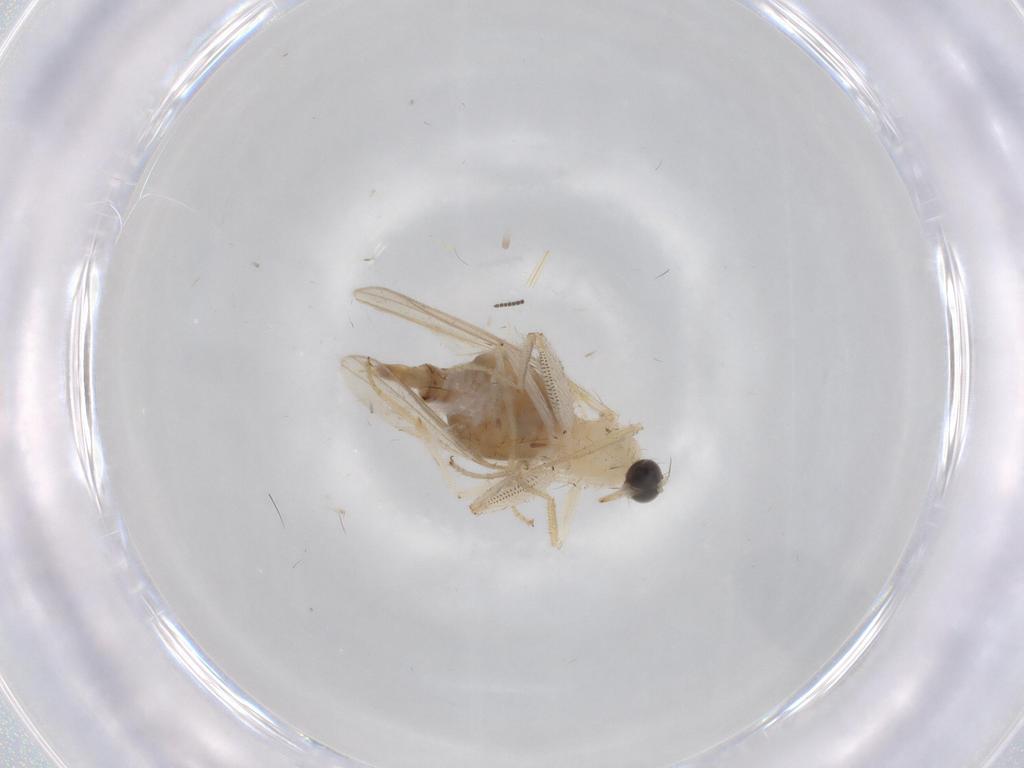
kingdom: Animalia
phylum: Arthropoda
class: Insecta
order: Diptera
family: Hybotidae
